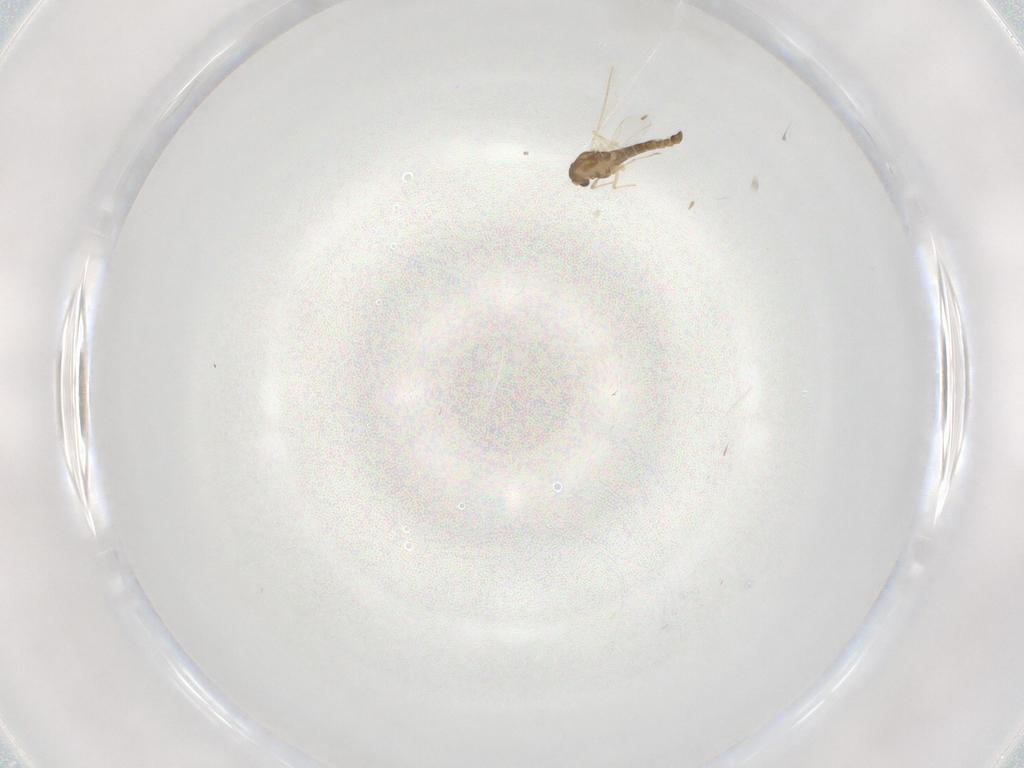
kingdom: Animalia
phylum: Arthropoda
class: Insecta
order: Diptera
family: Chironomidae
